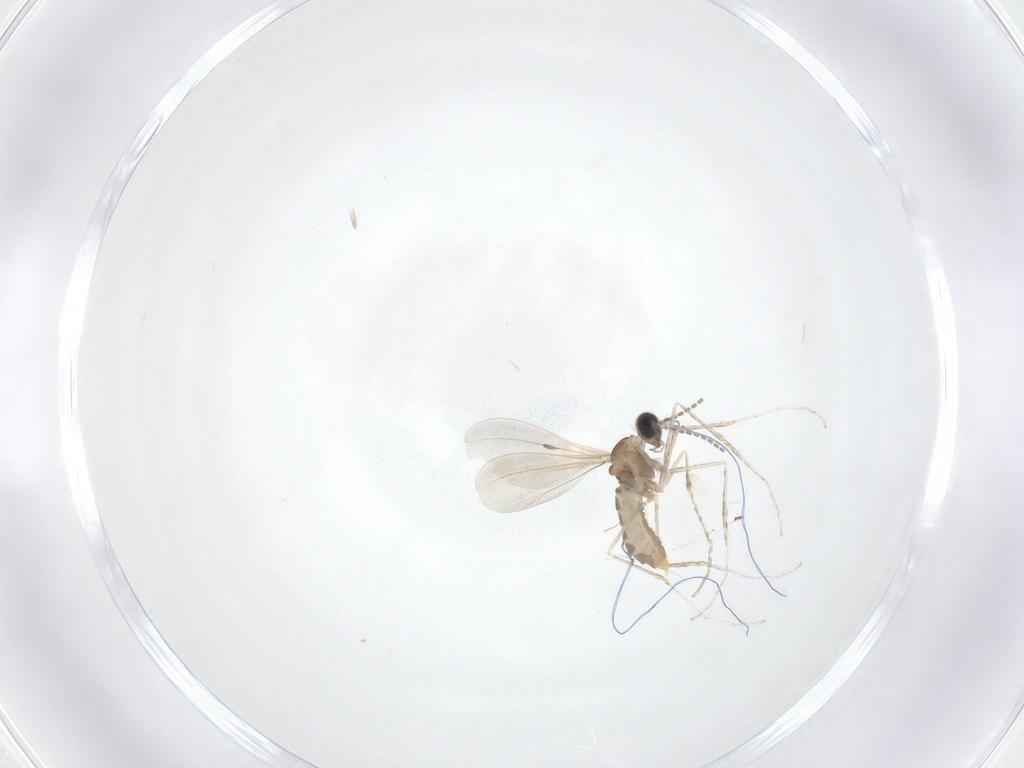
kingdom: Animalia
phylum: Arthropoda
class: Insecta
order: Diptera
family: Dolichopodidae
